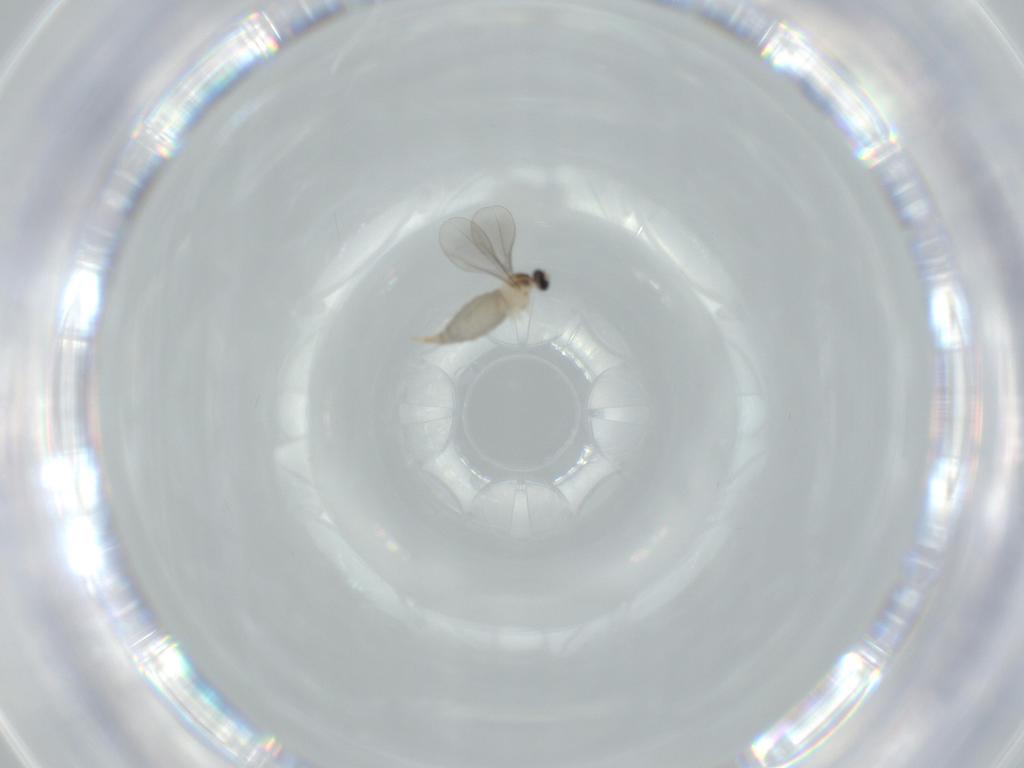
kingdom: Animalia
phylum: Arthropoda
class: Insecta
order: Diptera
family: Cecidomyiidae
